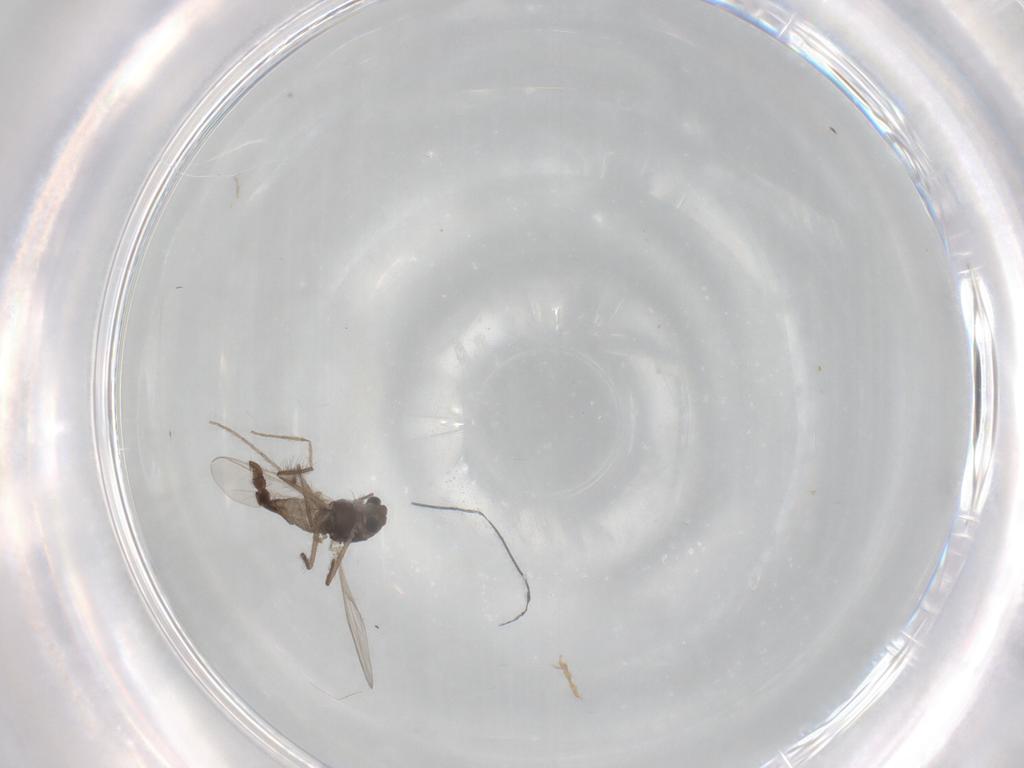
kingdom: Animalia
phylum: Arthropoda
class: Insecta
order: Diptera
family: Chironomidae
